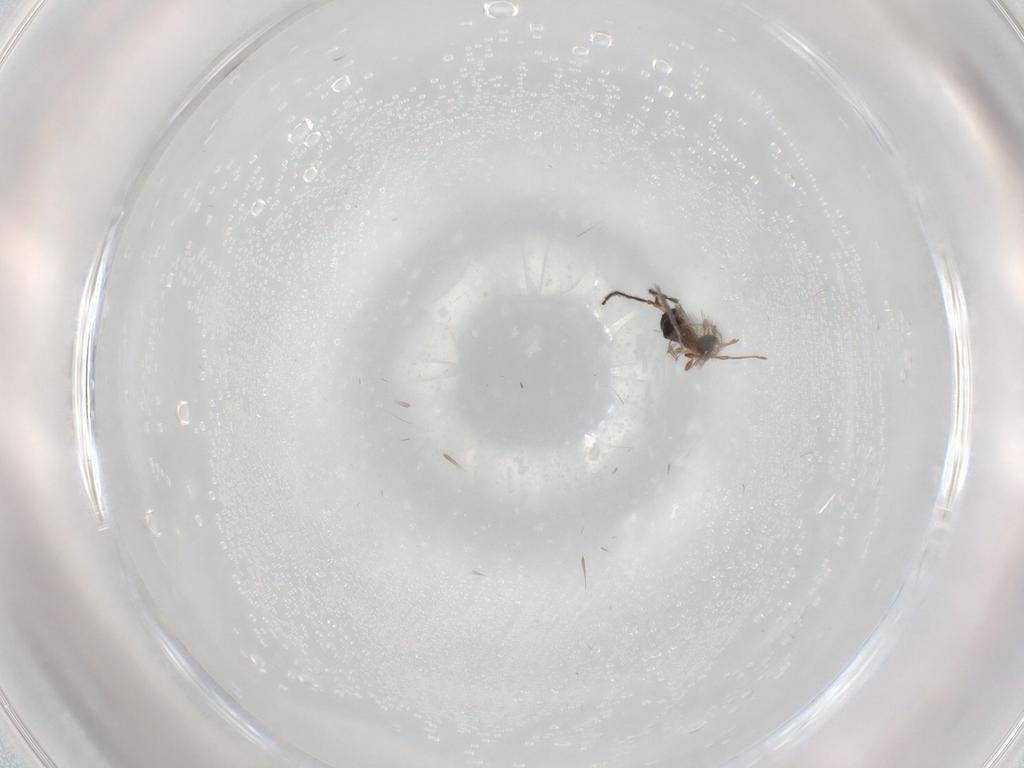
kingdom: Animalia
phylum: Arthropoda
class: Insecta
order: Hymenoptera
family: Diapriidae
